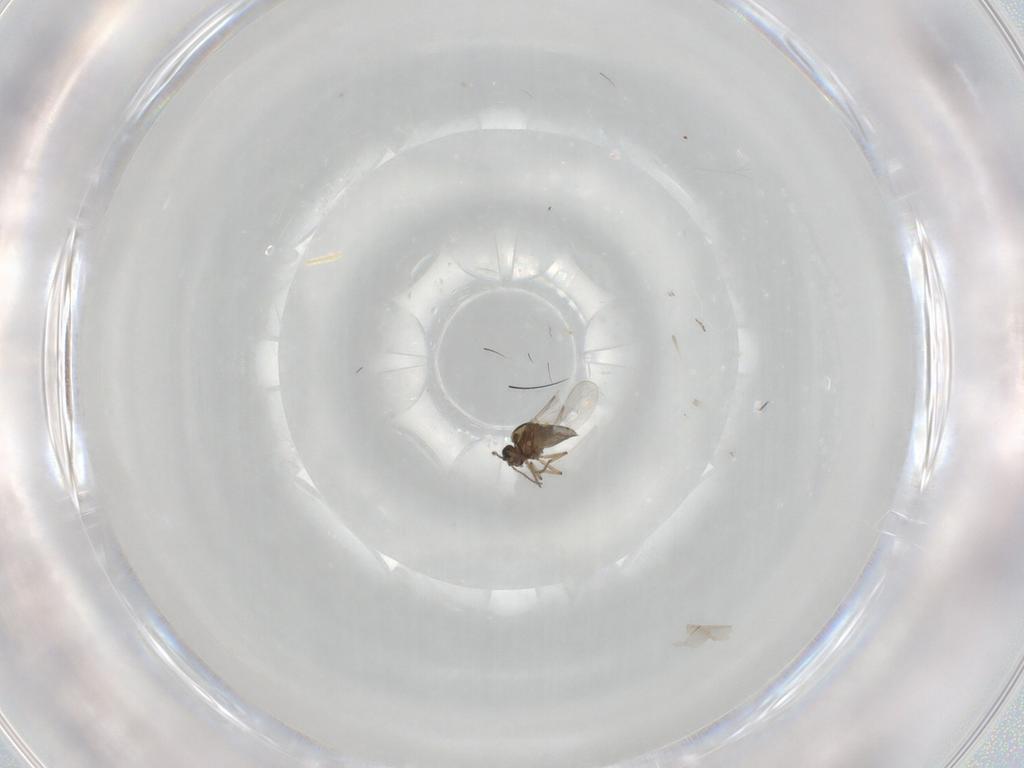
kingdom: Animalia
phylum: Arthropoda
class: Insecta
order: Diptera
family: Ceratopogonidae
